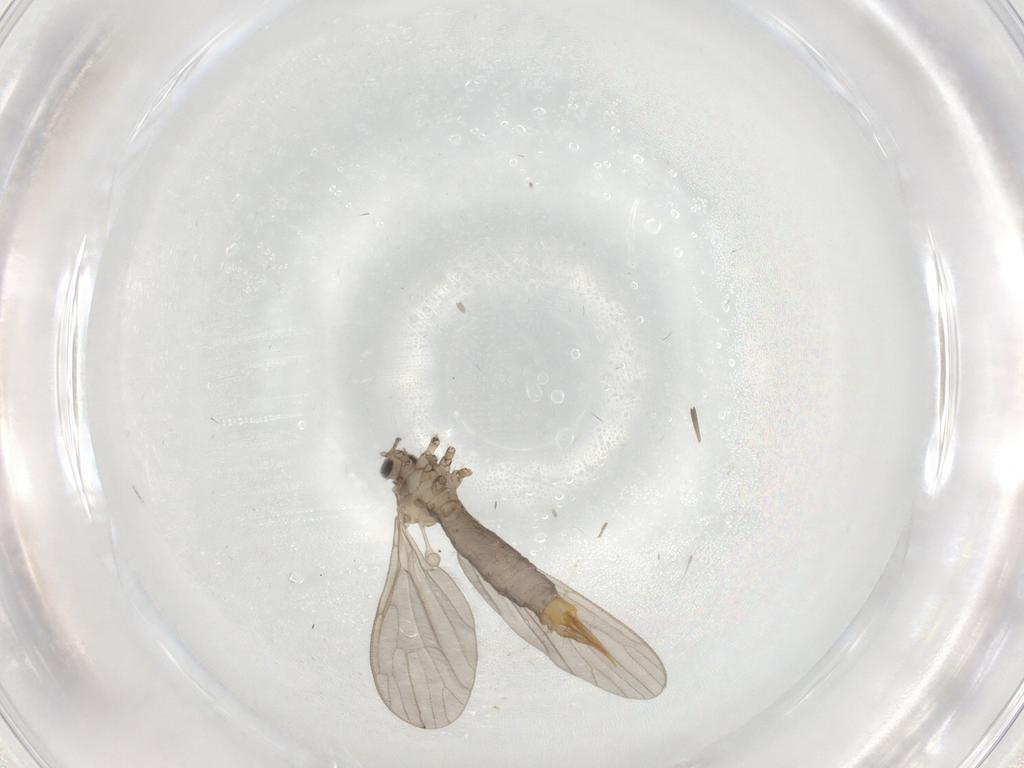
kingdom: Animalia
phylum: Arthropoda
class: Insecta
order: Diptera
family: Phoridae
